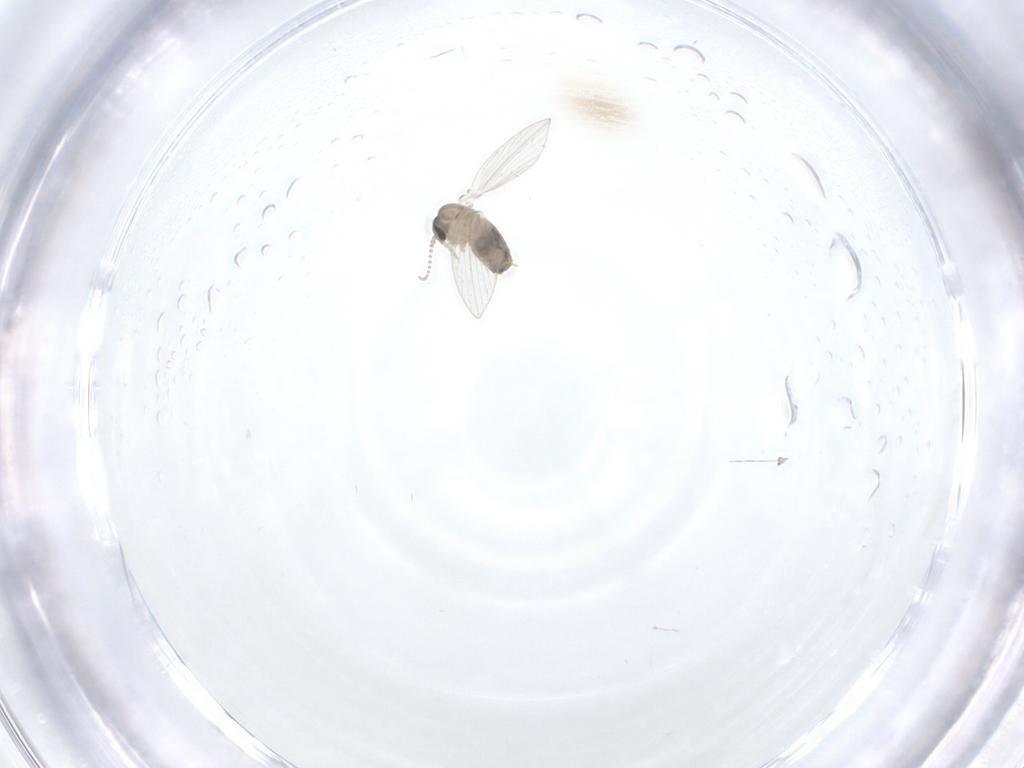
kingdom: Animalia
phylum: Arthropoda
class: Insecta
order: Diptera
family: Psychodidae
